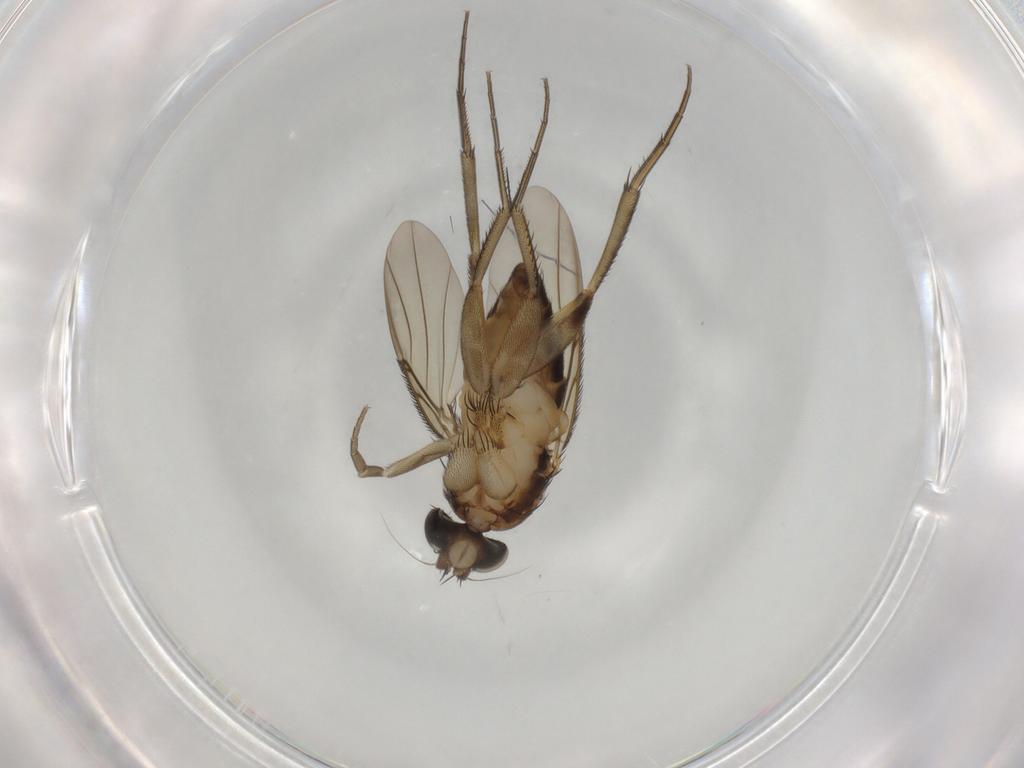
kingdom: Animalia
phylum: Arthropoda
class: Insecta
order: Diptera
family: Phoridae
